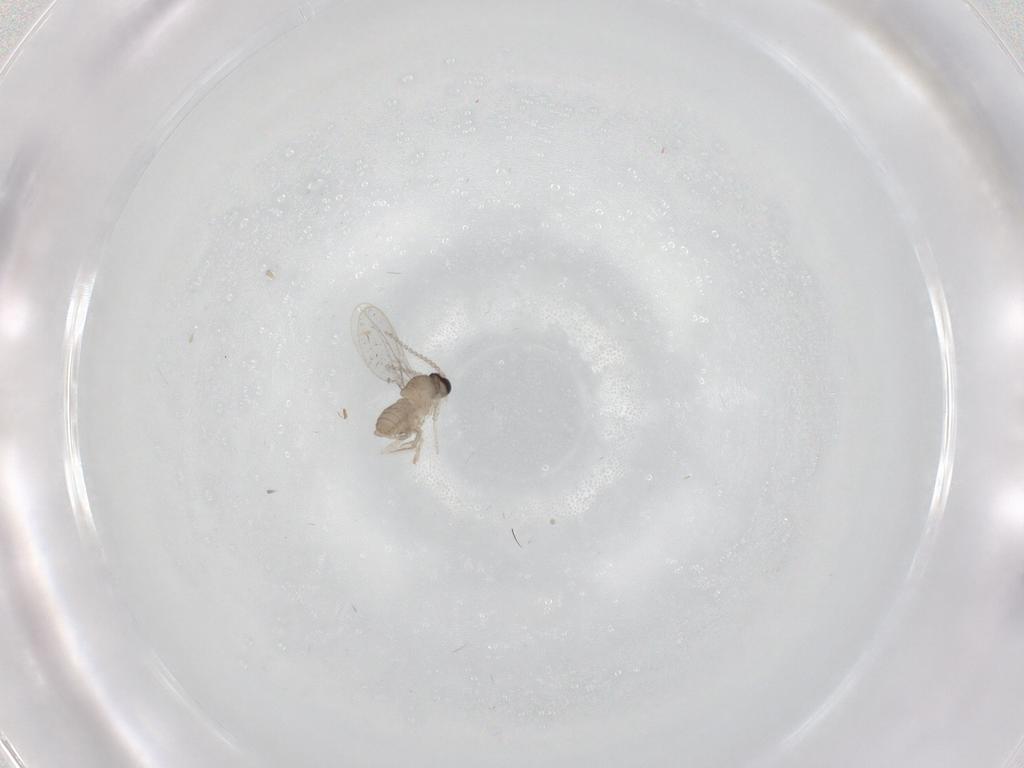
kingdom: Animalia
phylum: Arthropoda
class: Insecta
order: Diptera
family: Cecidomyiidae
